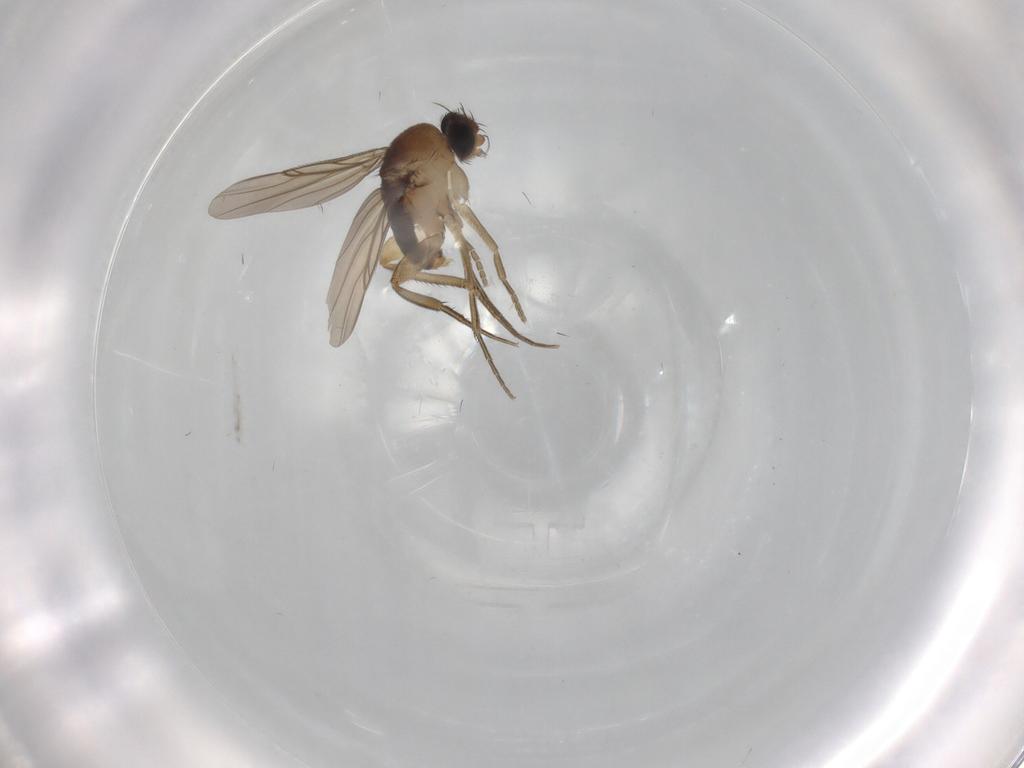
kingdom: Animalia
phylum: Arthropoda
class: Insecta
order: Diptera
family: Phoridae
